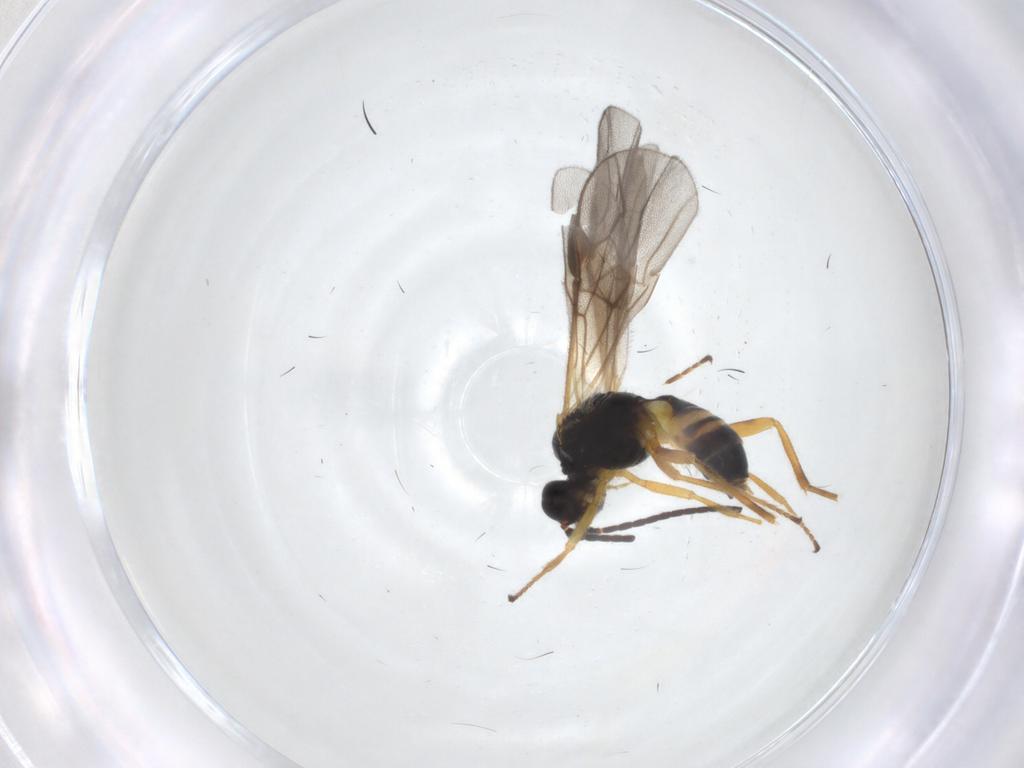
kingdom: Animalia
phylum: Arthropoda
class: Insecta
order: Hymenoptera
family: Braconidae
